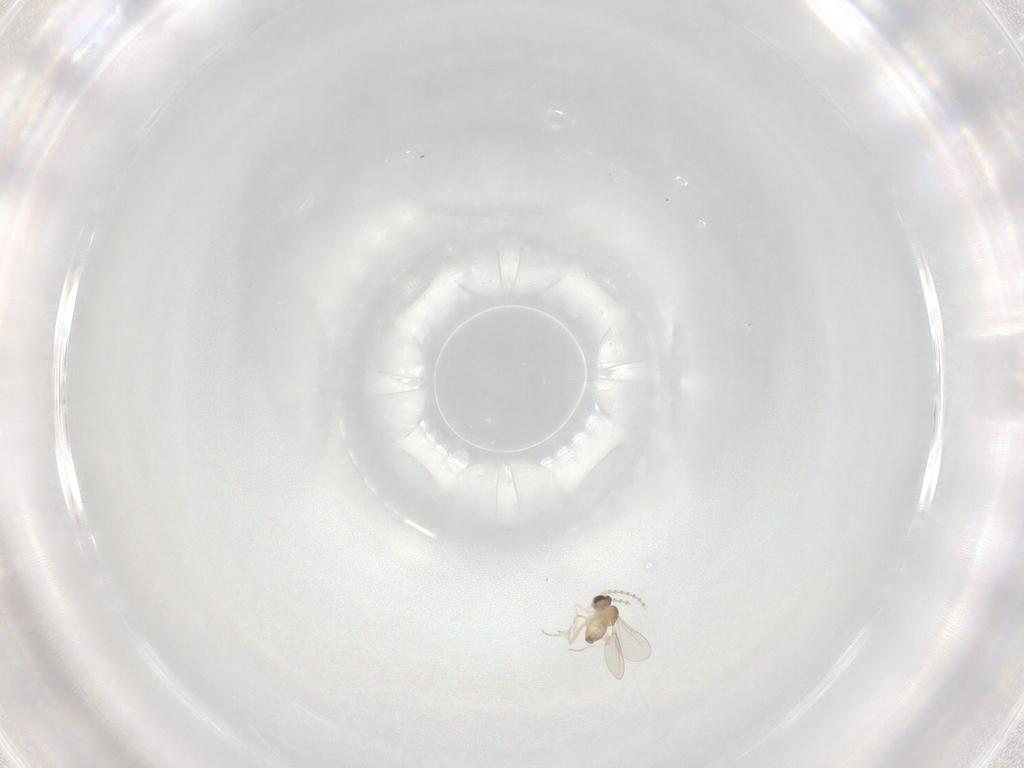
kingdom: Animalia
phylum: Arthropoda
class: Insecta
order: Diptera
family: Cecidomyiidae
